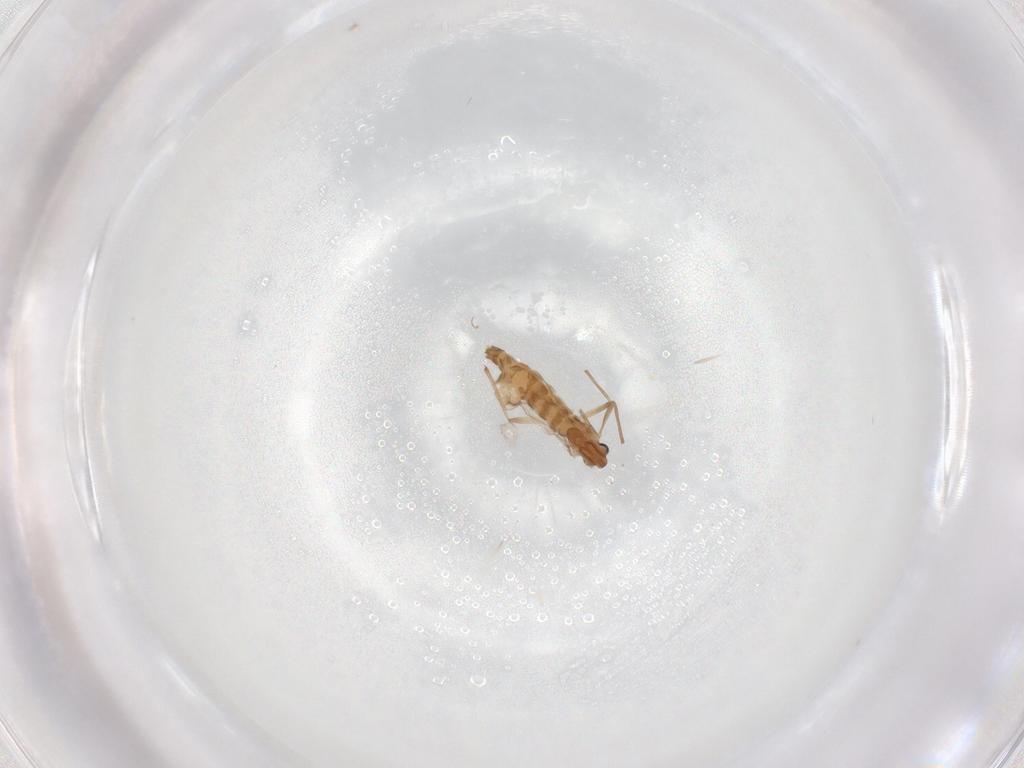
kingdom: Animalia
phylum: Arthropoda
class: Insecta
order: Diptera
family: Chironomidae
